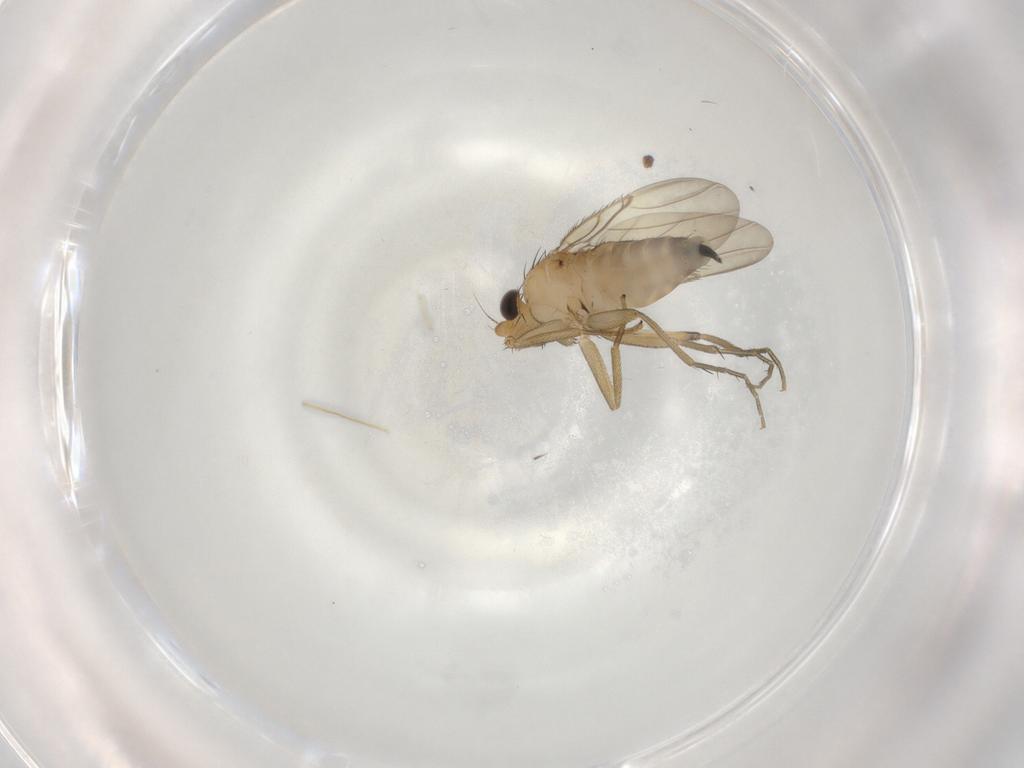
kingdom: Animalia
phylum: Arthropoda
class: Insecta
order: Diptera
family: Phoridae
